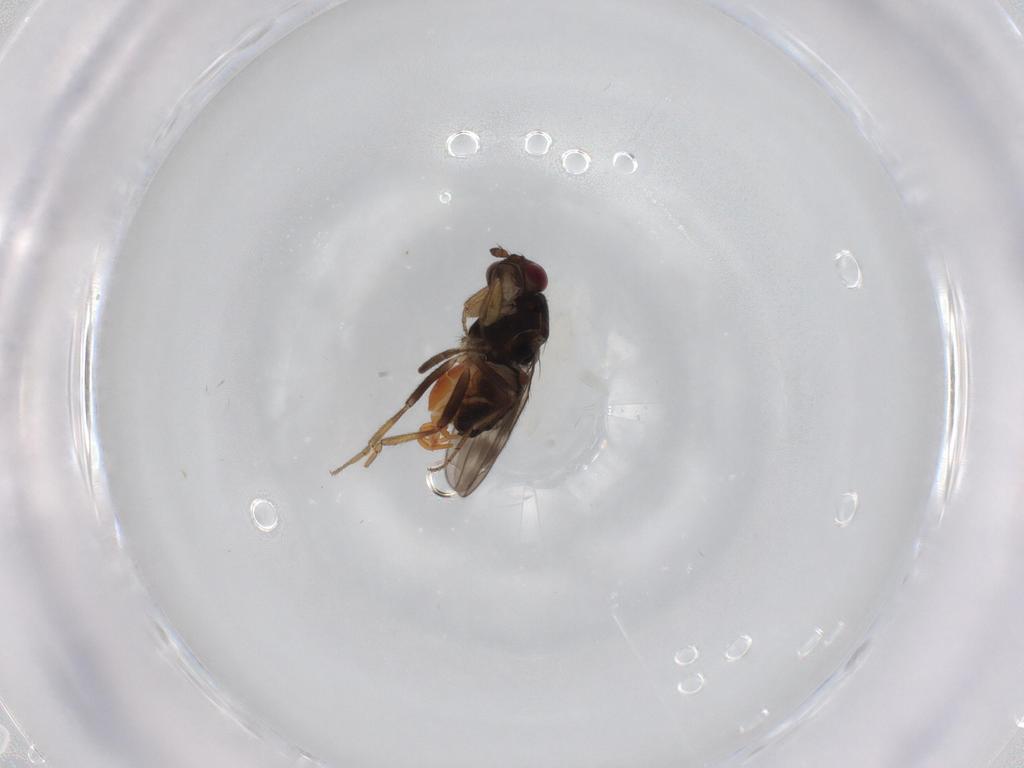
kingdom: Animalia
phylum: Arthropoda
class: Insecta
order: Diptera
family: Sphaeroceridae
